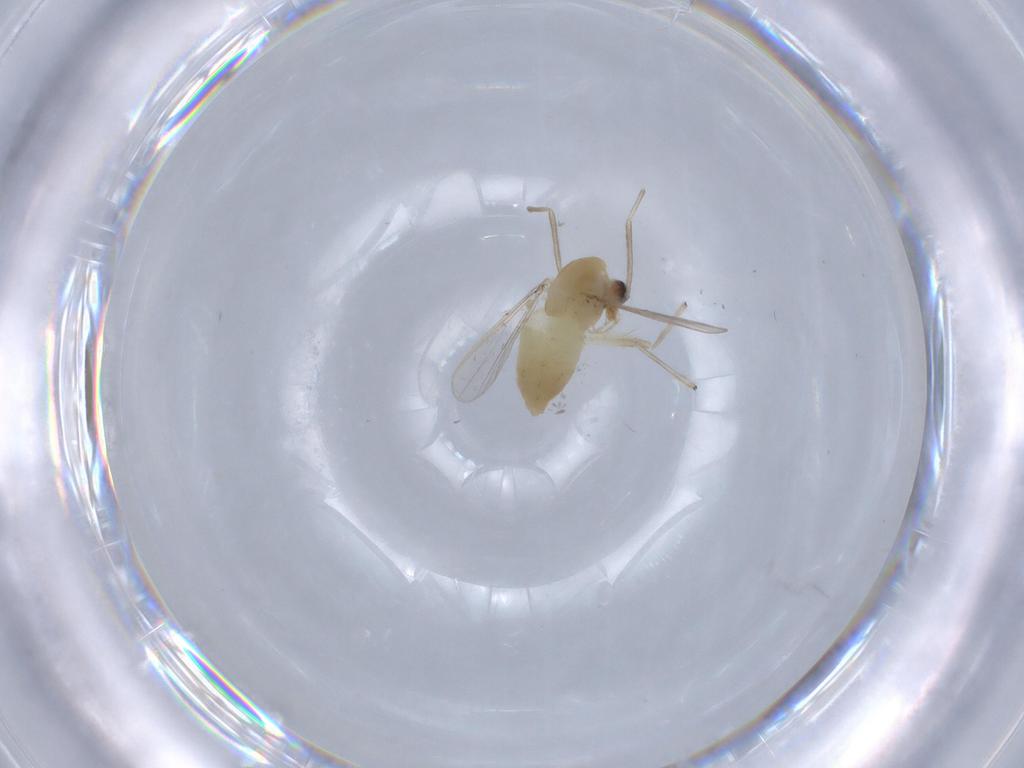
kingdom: Animalia
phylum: Arthropoda
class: Insecta
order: Diptera
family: Chironomidae
